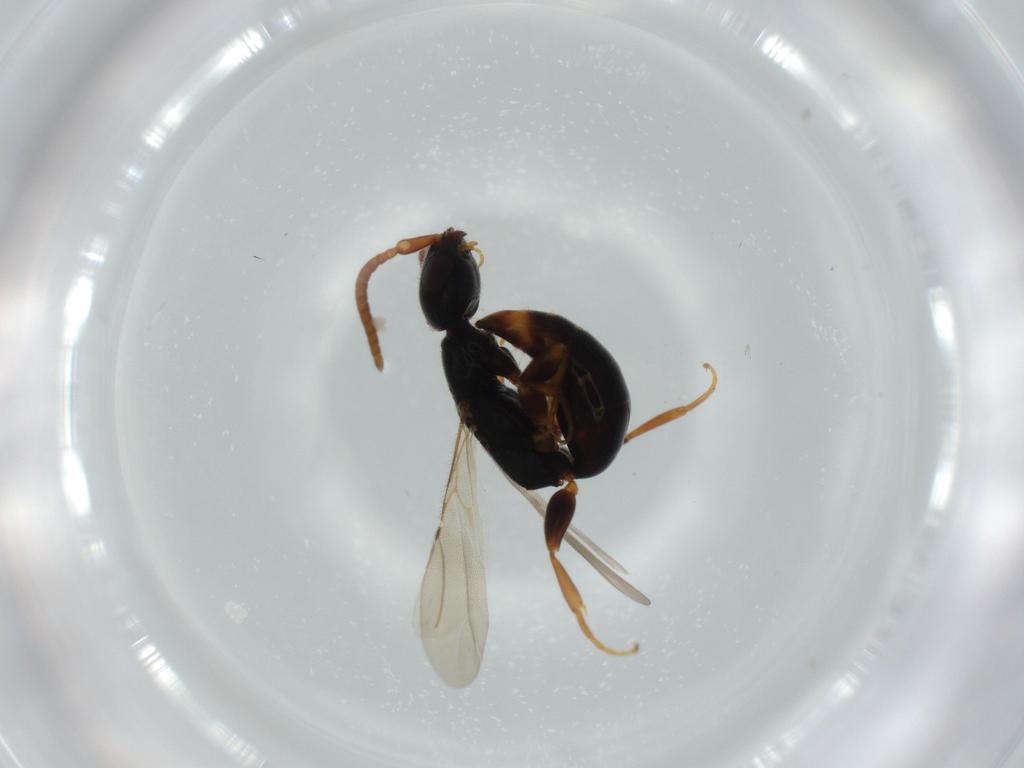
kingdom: Animalia
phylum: Arthropoda
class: Insecta
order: Hymenoptera
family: Bethylidae
